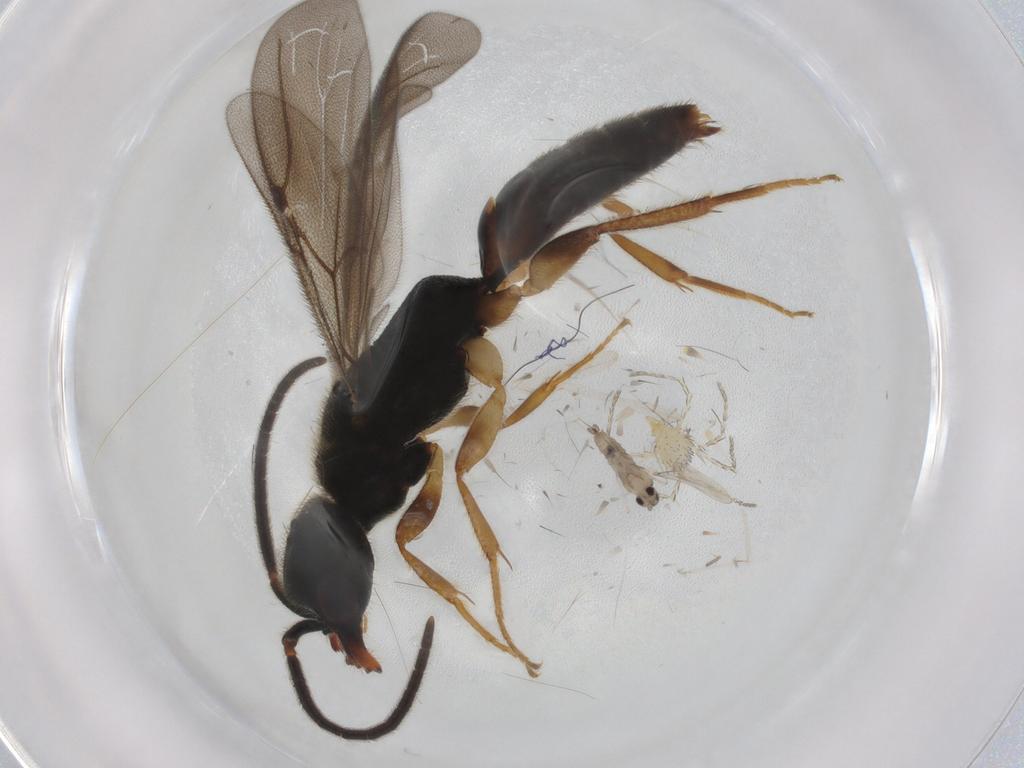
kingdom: Animalia
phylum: Arthropoda
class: Insecta
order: Hymenoptera
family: Bethylidae
